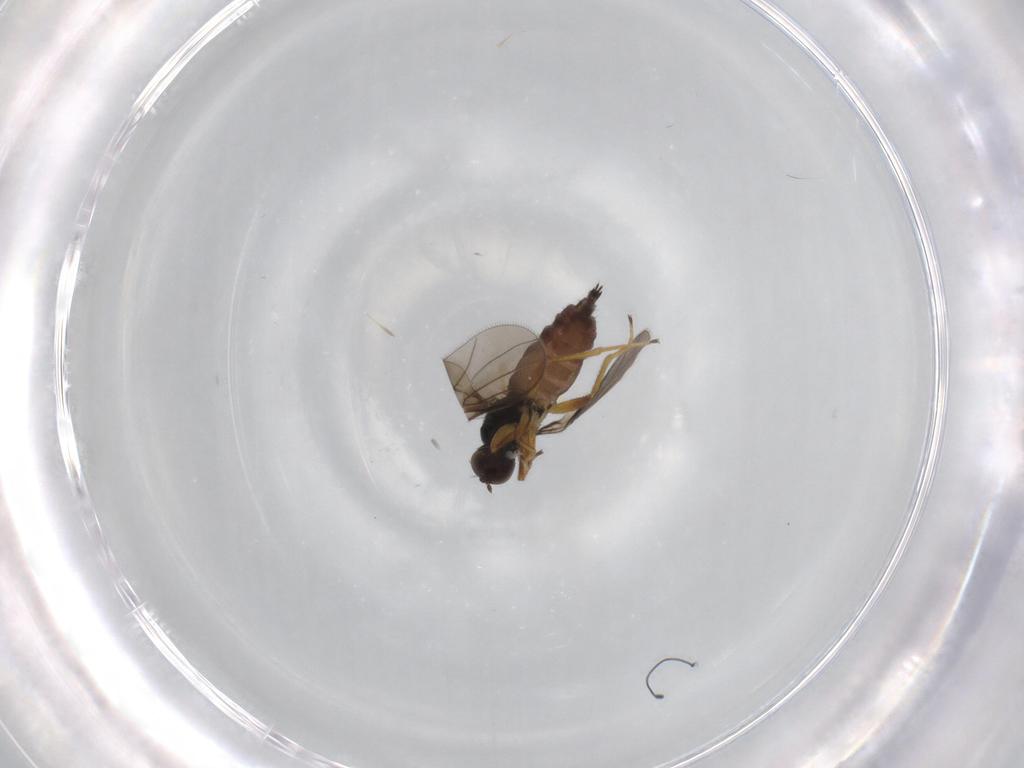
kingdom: Animalia
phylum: Arthropoda
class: Insecta
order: Diptera
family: Hybotidae
